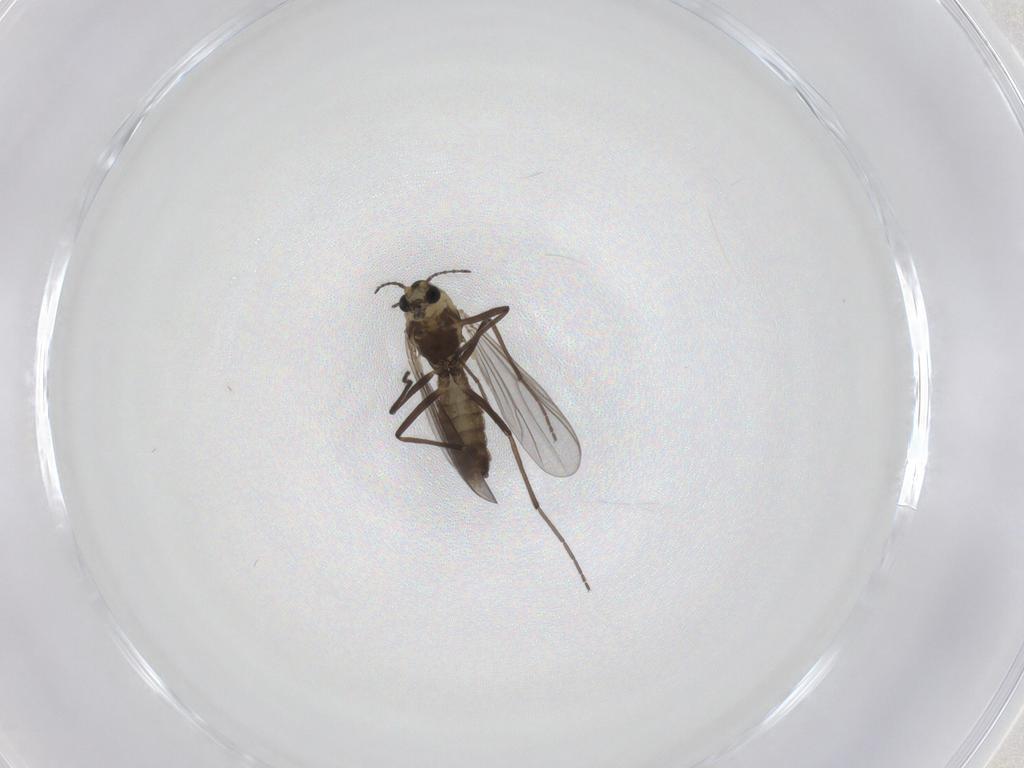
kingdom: Animalia
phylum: Arthropoda
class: Insecta
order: Diptera
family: Chironomidae
